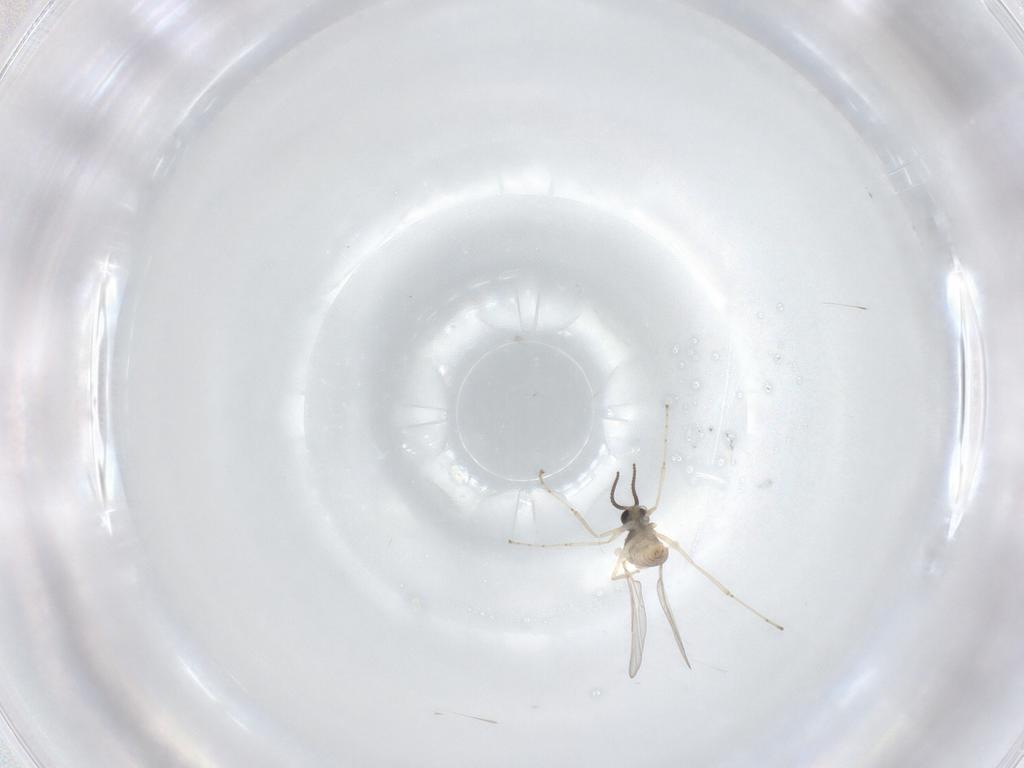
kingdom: Animalia
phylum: Arthropoda
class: Insecta
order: Diptera
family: Cecidomyiidae
